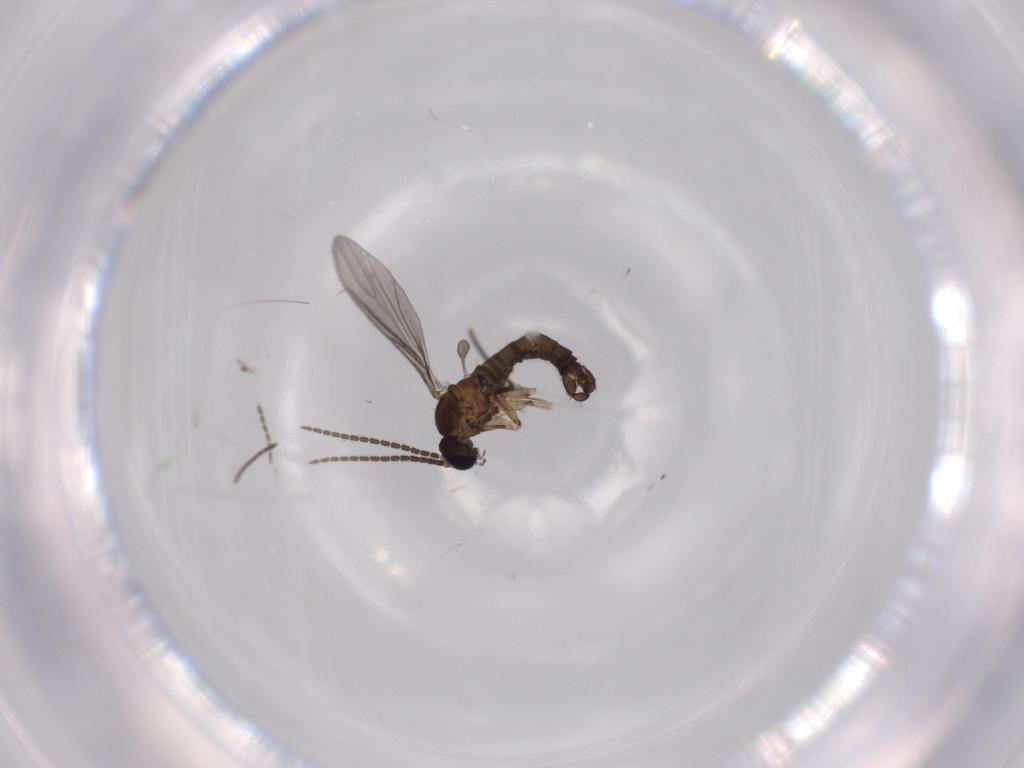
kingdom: Animalia
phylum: Arthropoda
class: Insecta
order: Diptera
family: Sciaridae
